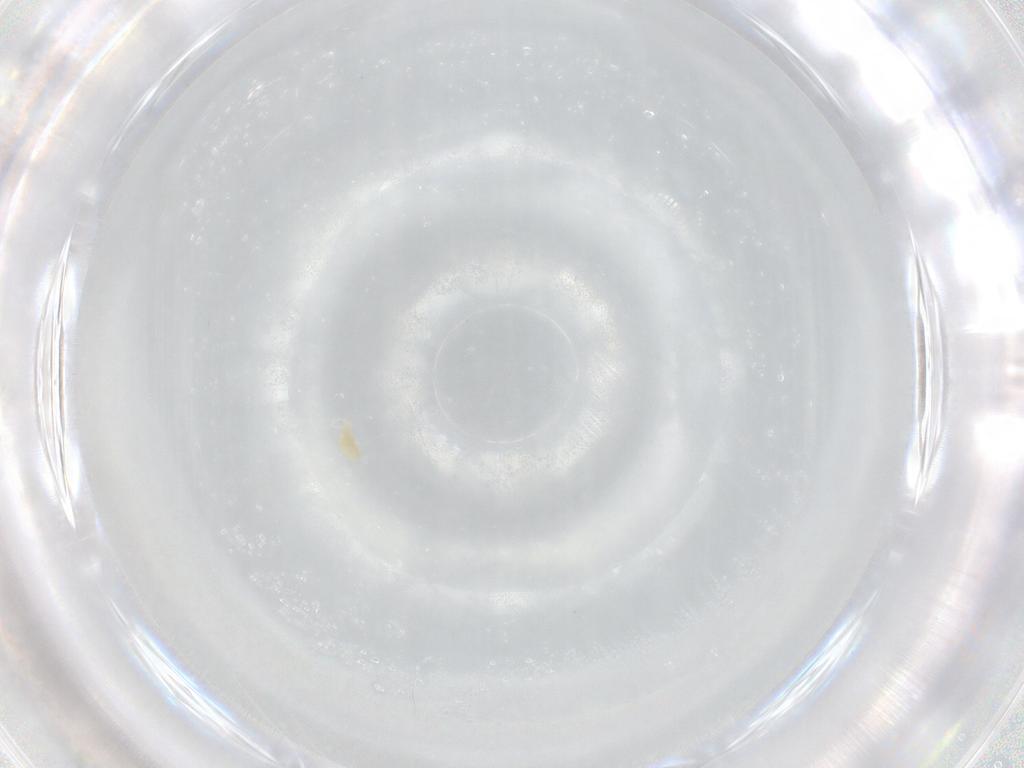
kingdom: Animalia
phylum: Arthropoda
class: Arachnida
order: Trombidiformes
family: Eupodidae
